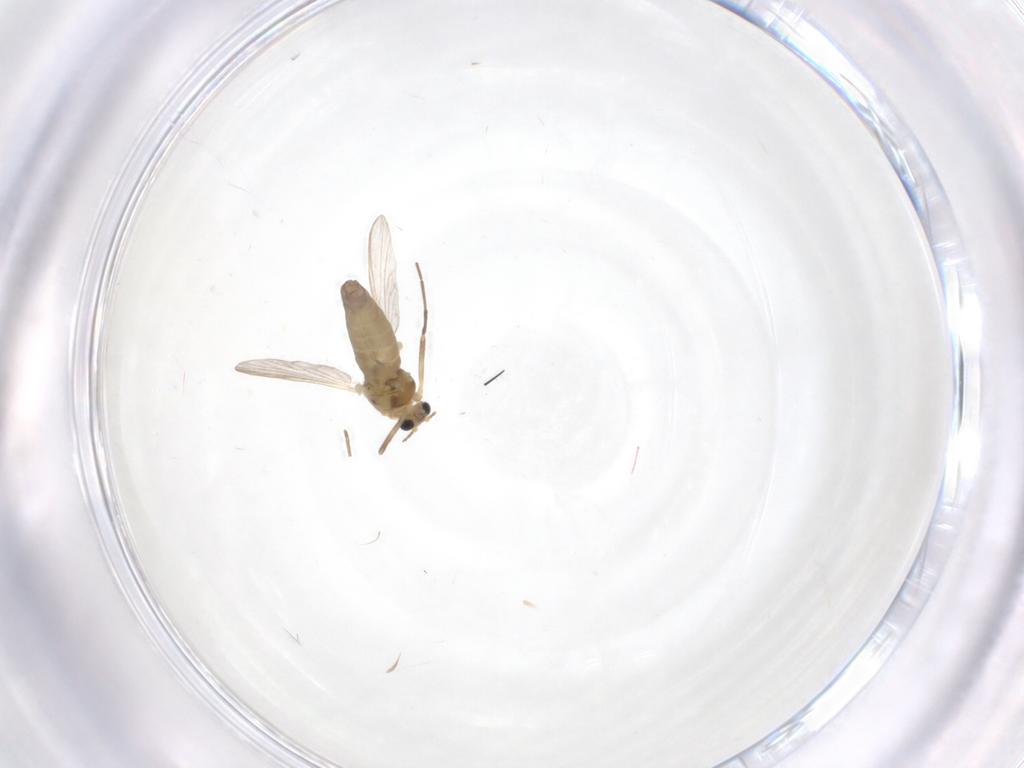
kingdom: Animalia
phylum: Arthropoda
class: Insecta
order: Diptera
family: Chironomidae
